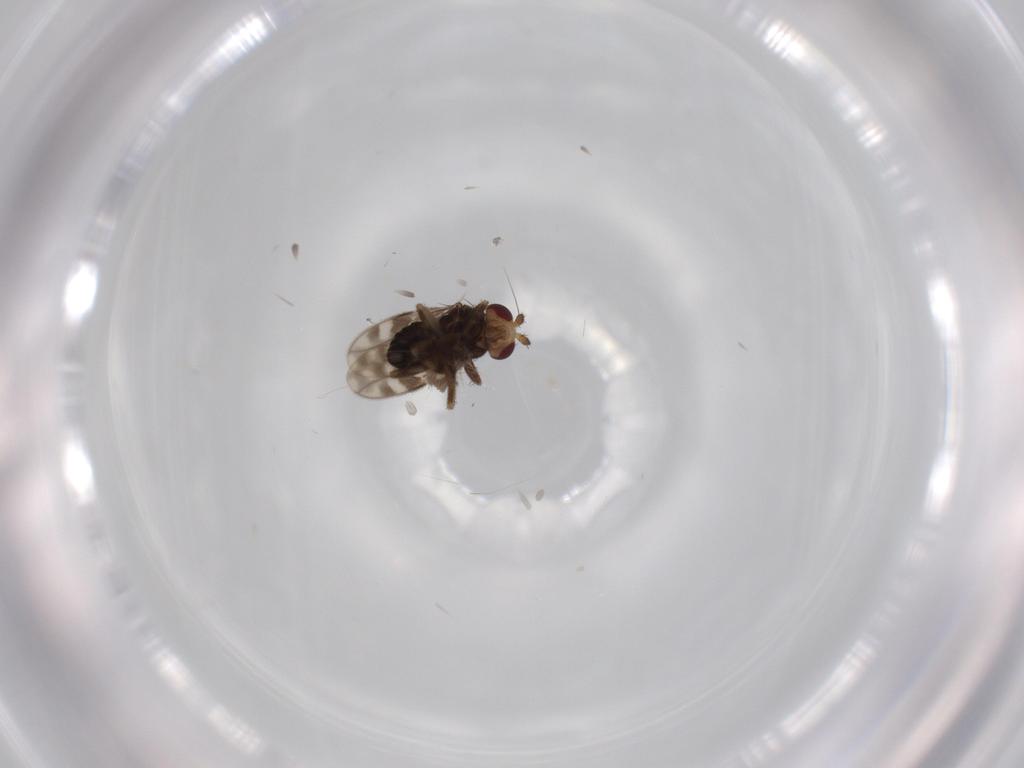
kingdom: Animalia
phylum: Arthropoda
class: Insecta
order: Diptera
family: Sphaeroceridae
